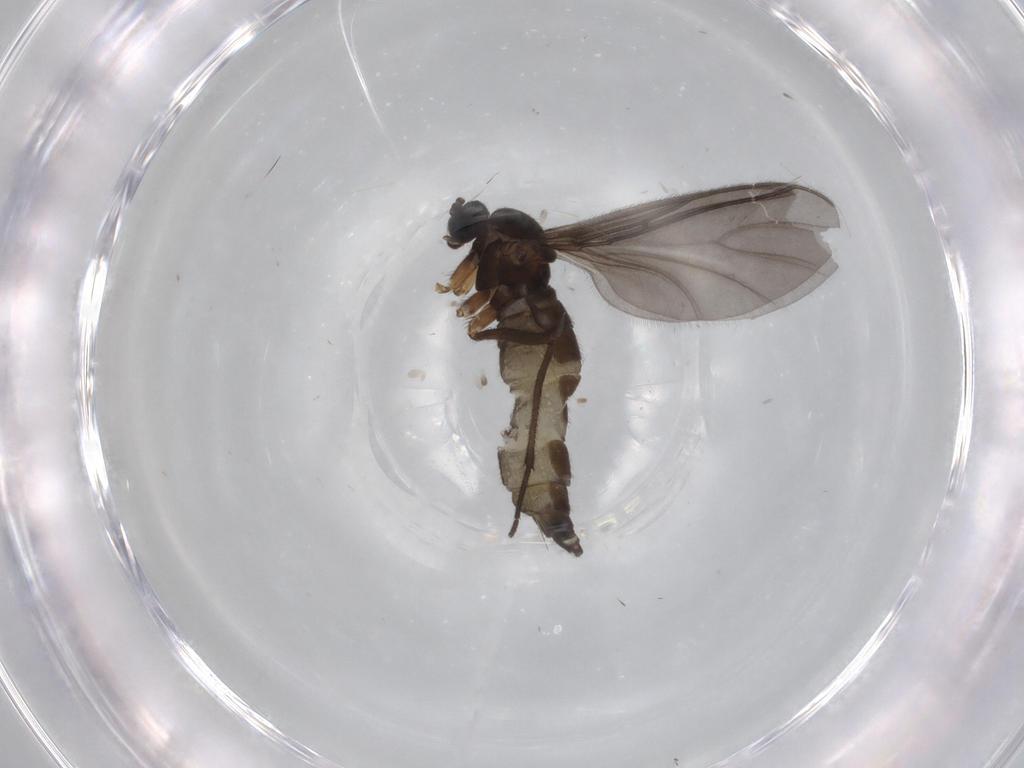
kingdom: Animalia
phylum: Arthropoda
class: Insecta
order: Diptera
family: Sciaridae
